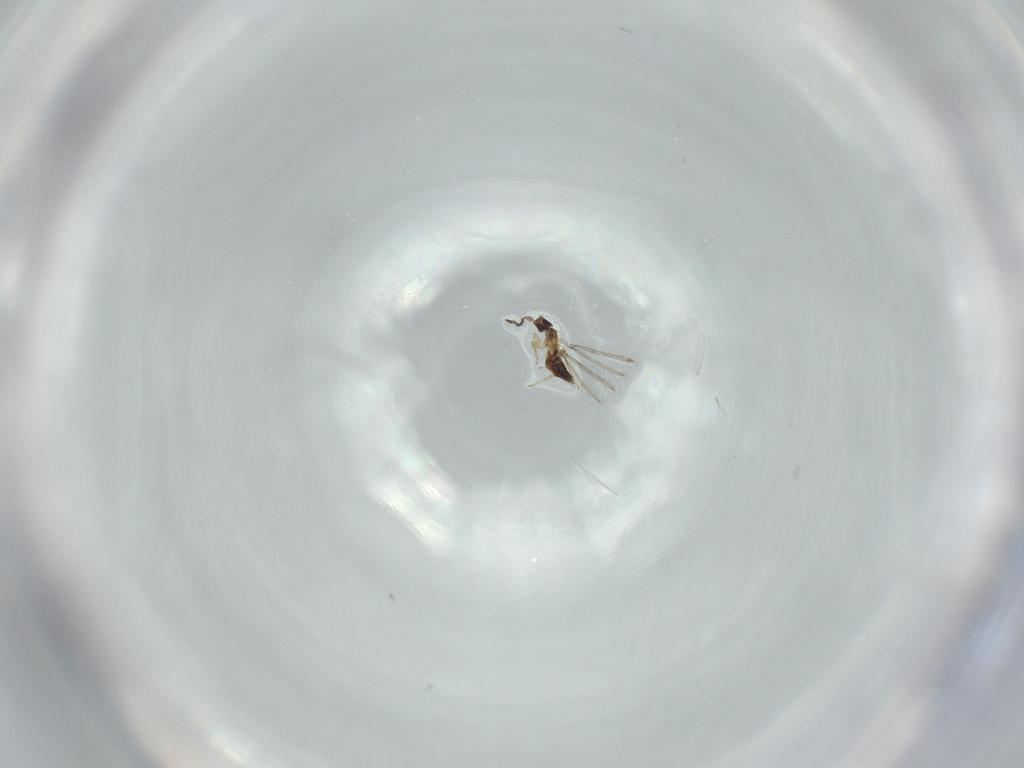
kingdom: Animalia
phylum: Arthropoda
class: Insecta
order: Hymenoptera
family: Mymaridae
